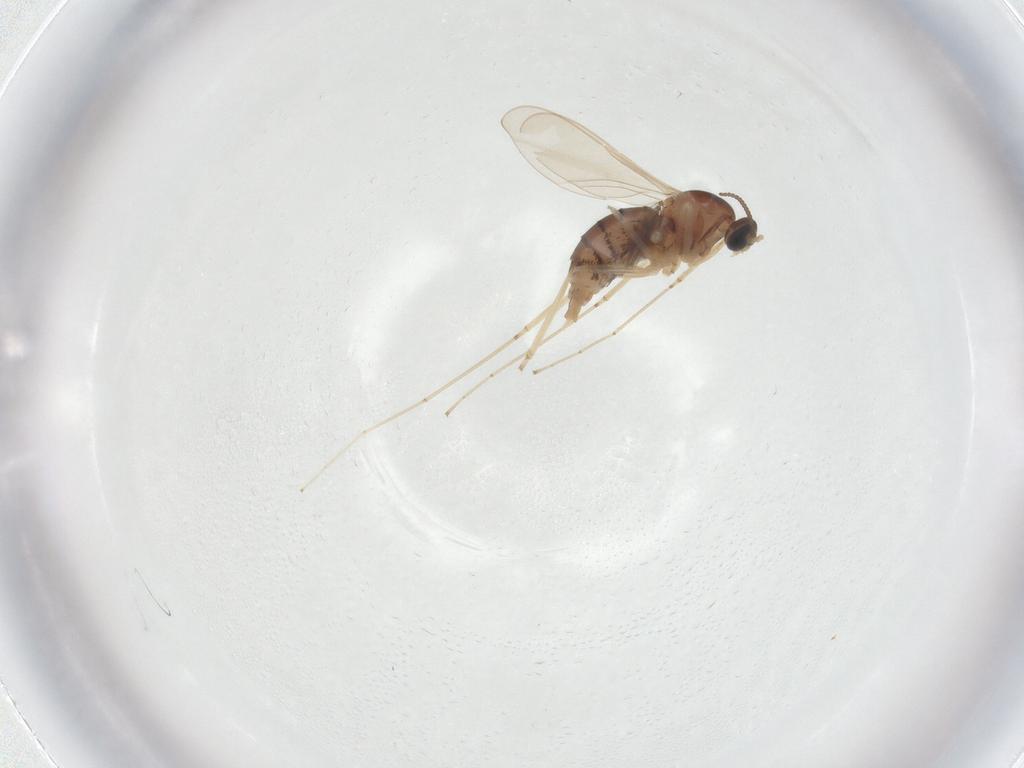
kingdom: Animalia
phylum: Arthropoda
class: Insecta
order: Diptera
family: Cecidomyiidae
